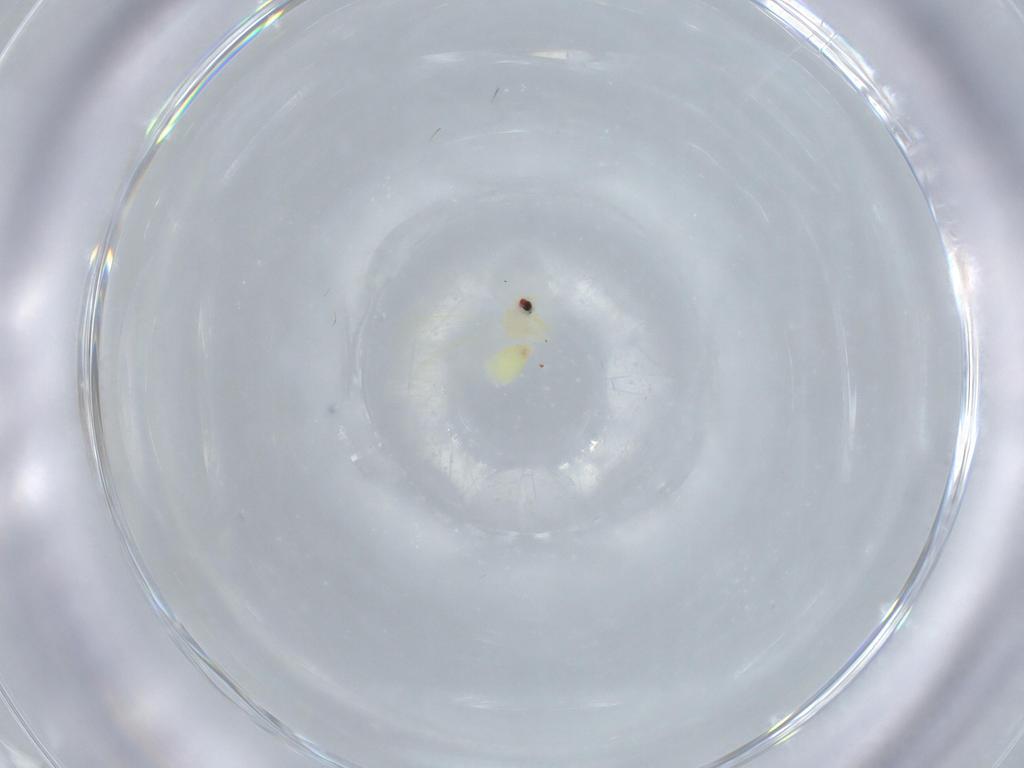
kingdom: Animalia
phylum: Arthropoda
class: Insecta
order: Hemiptera
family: Aleyrodidae
